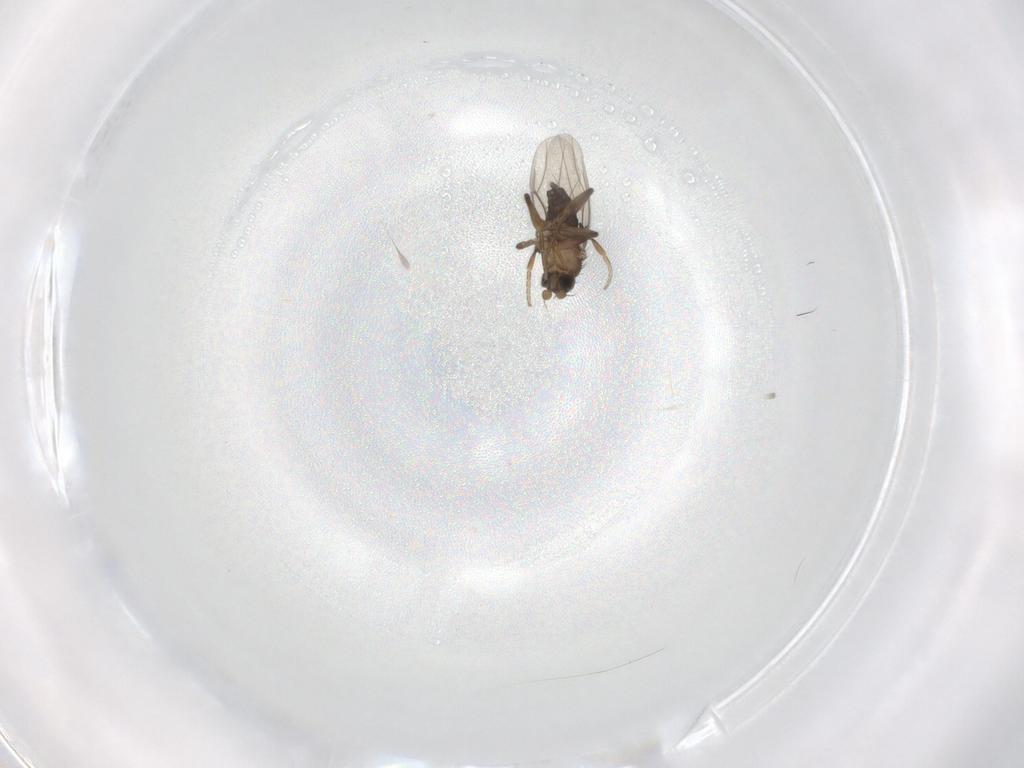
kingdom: Animalia
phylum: Arthropoda
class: Insecta
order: Diptera
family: Phoridae
